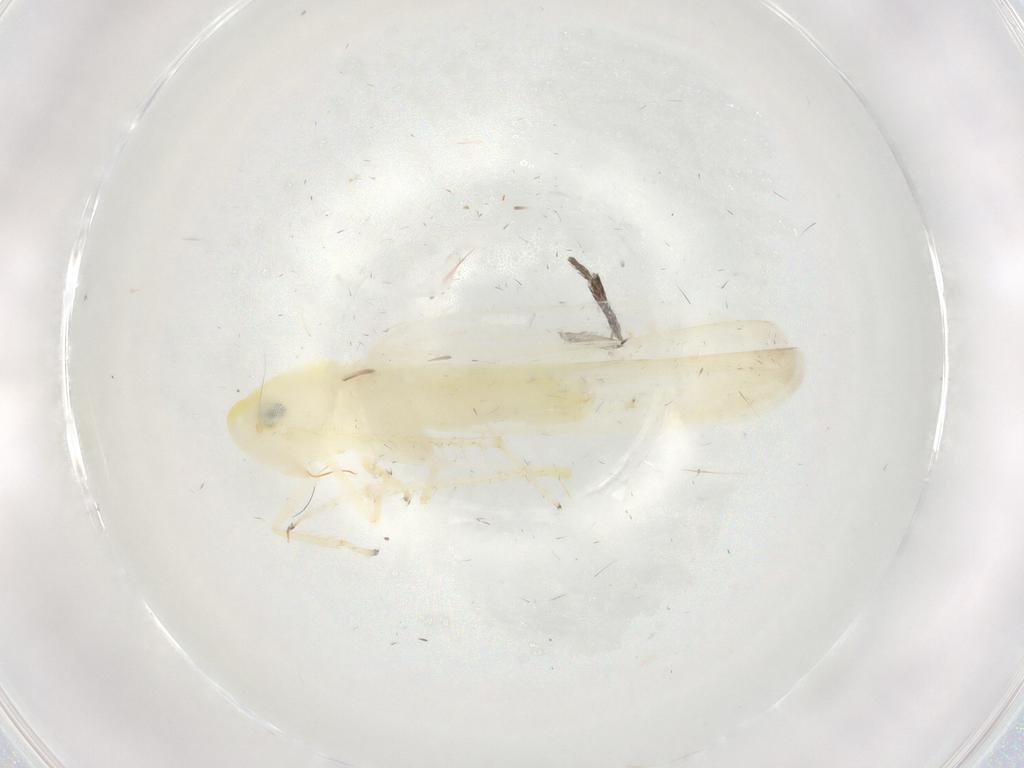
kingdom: Animalia
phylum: Arthropoda
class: Insecta
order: Hemiptera
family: Cicadellidae
